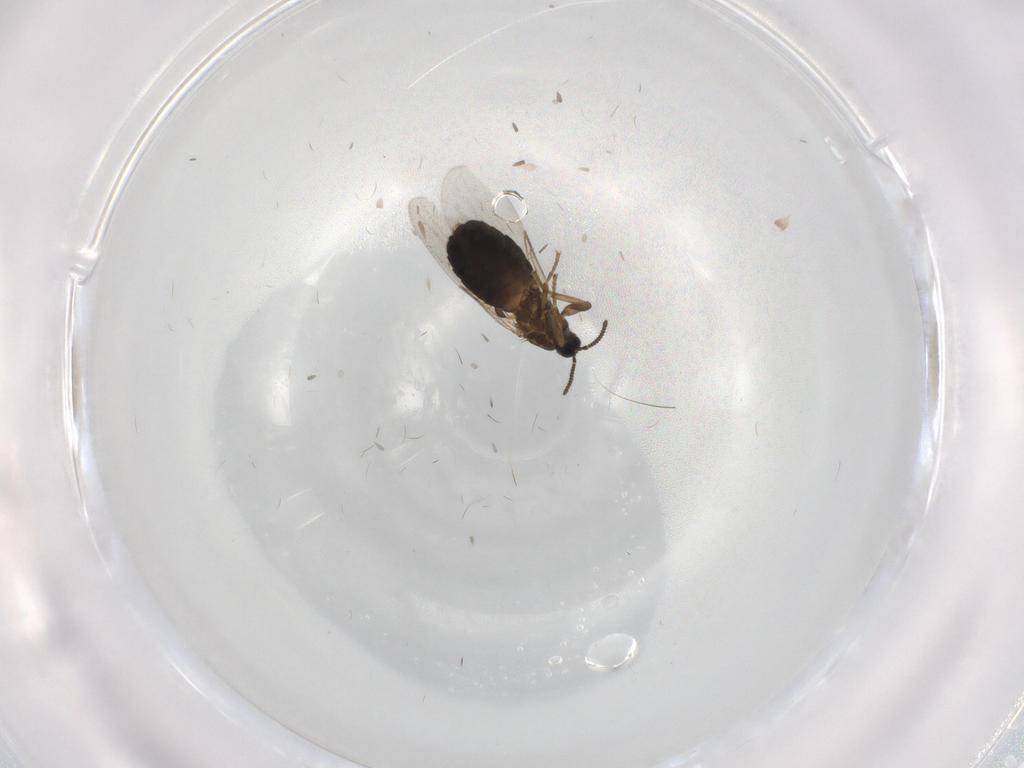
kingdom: Animalia
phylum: Arthropoda
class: Insecta
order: Diptera
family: Scatopsidae
